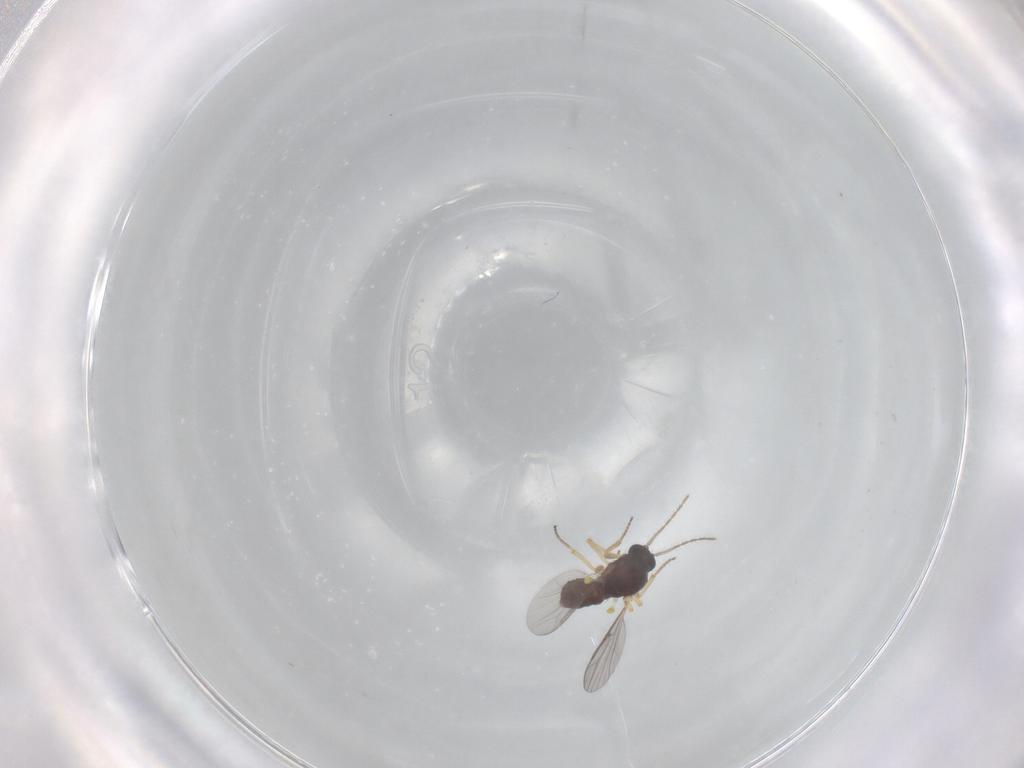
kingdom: Animalia
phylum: Arthropoda
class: Insecta
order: Diptera
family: Ceratopogonidae
